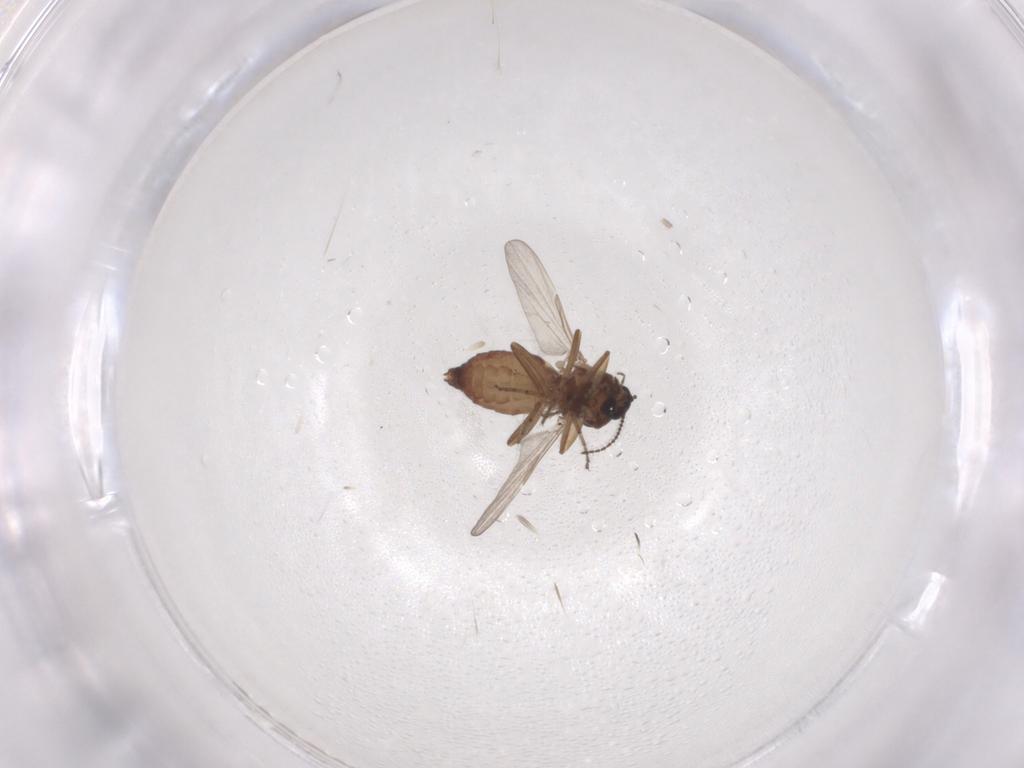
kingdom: Animalia
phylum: Arthropoda
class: Insecta
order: Diptera
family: Ceratopogonidae
